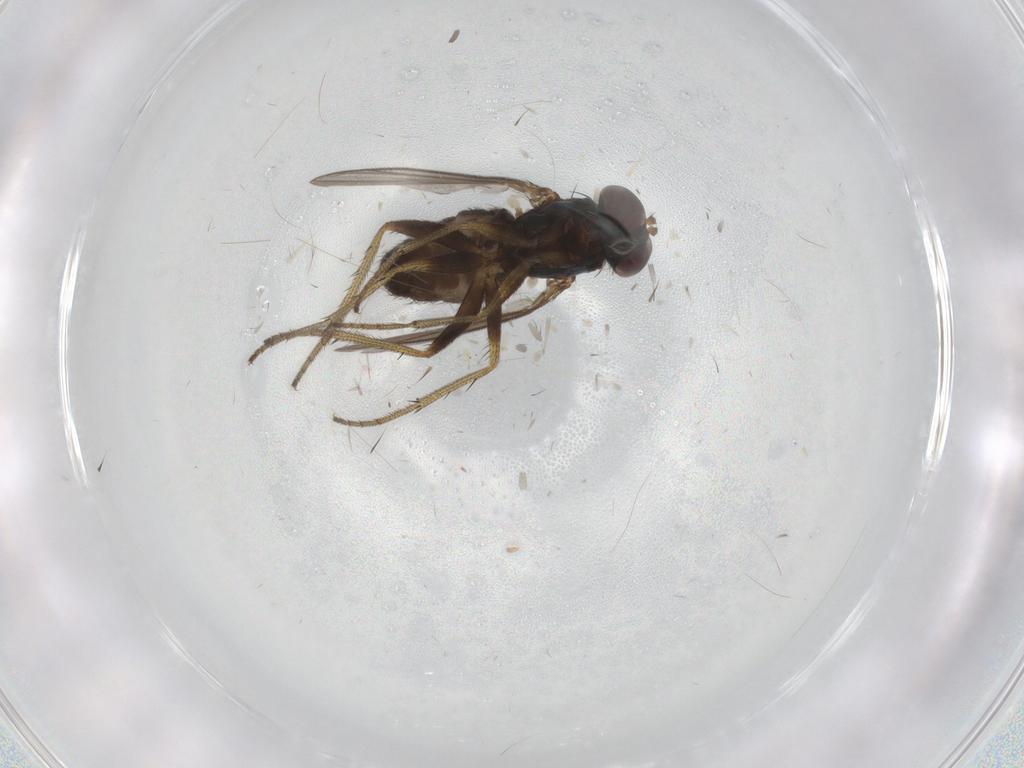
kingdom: Animalia
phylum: Arthropoda
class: Insecta
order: Diptera
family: Dolichopodidae
